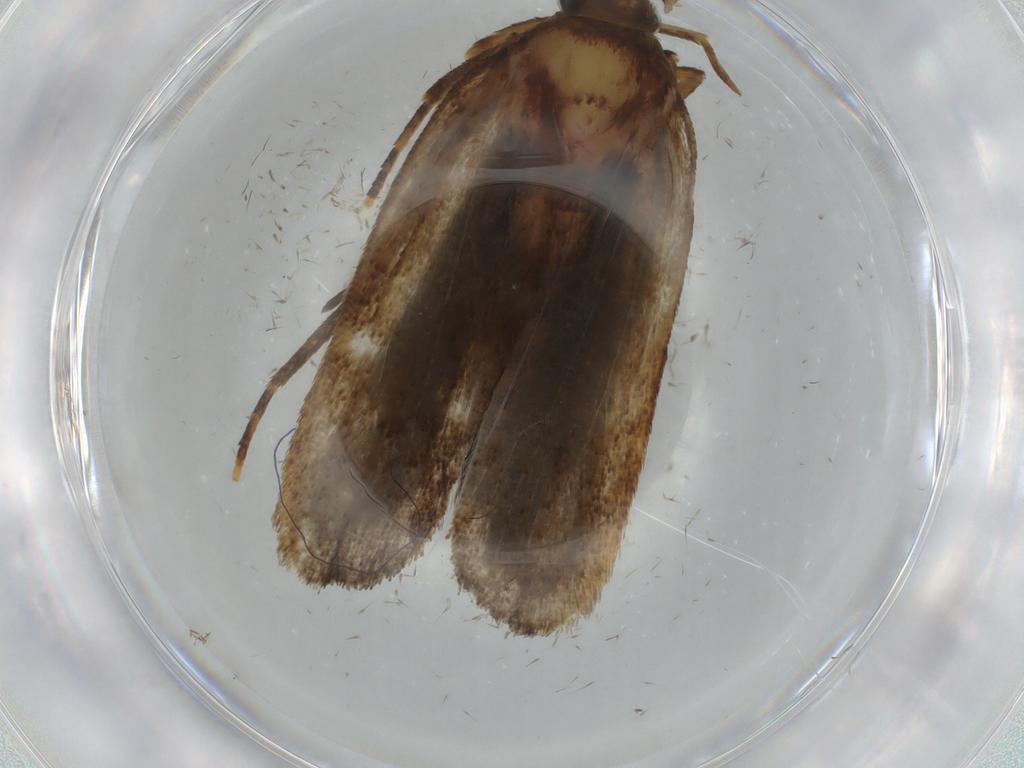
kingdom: Animalia
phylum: Arthropoda
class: Insecta
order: Lepidoptera
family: Autostichidae
